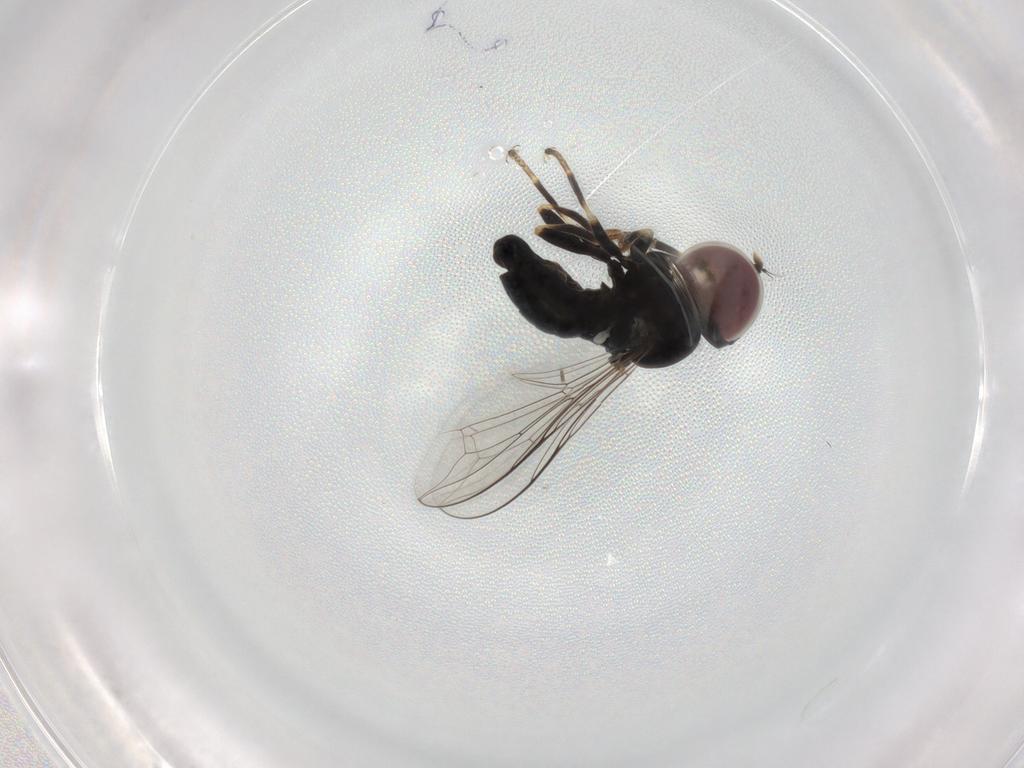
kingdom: Animalia
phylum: Arthropoda
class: Insecta
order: Diptera
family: Pipunculidae
